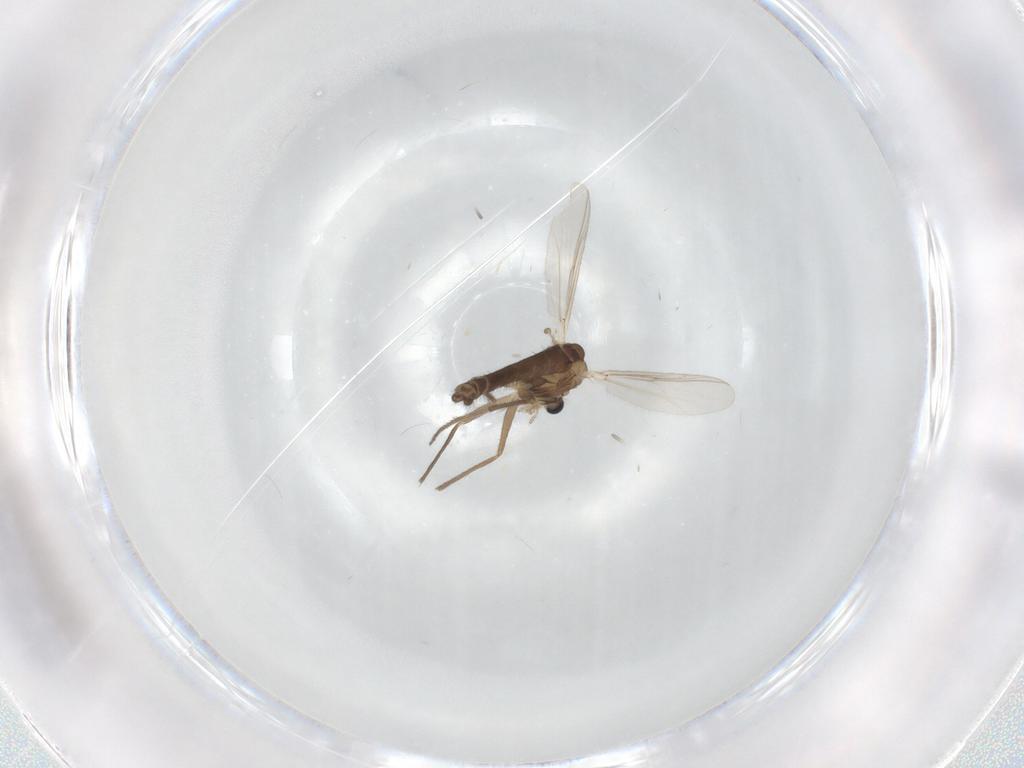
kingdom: Animalia
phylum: Arthropoda
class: Insecta
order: Diptera
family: Chironomidae
